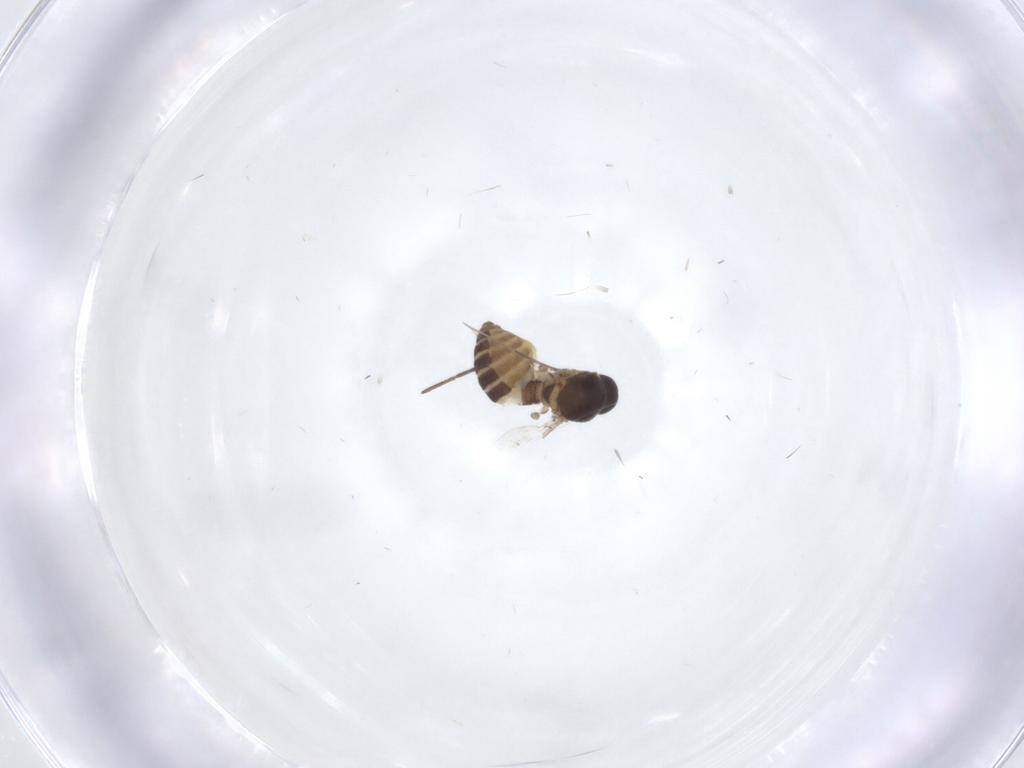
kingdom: Animalia
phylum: Arthropoda
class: Insecta
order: Diptera
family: Ceratopogonidae
